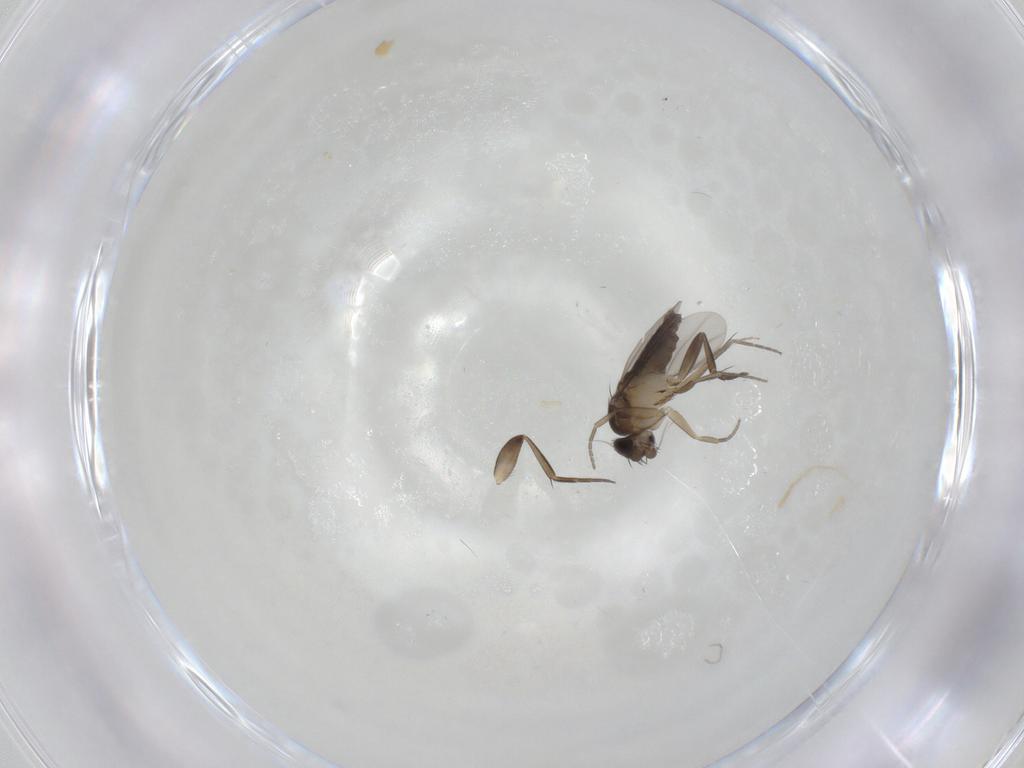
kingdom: Animalia
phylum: Arthropoda
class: Insecta
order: Diptera
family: Phoridae
